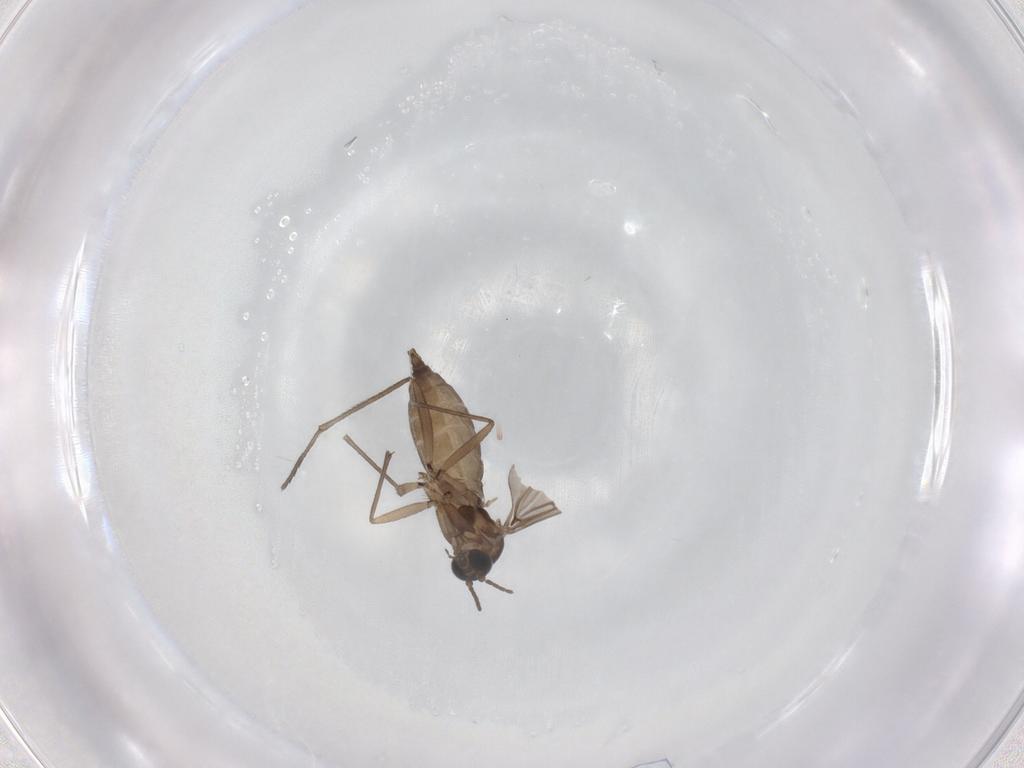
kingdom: Animalia
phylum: Arthropoda
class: Insecta
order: Diptera
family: Sciaridae
